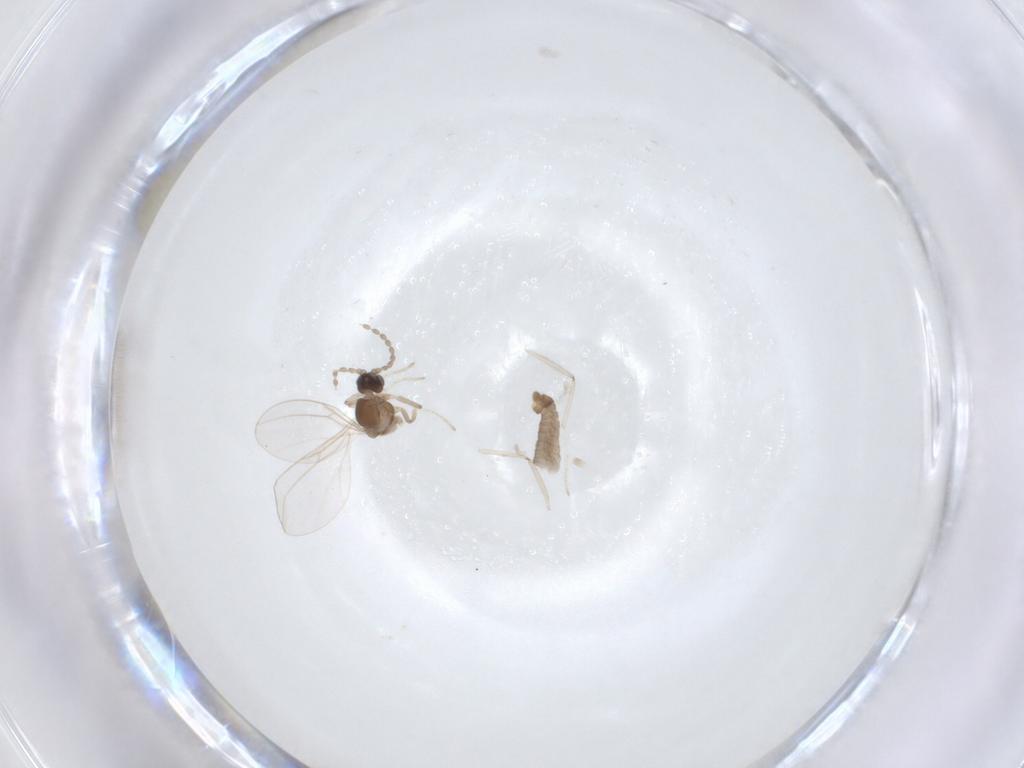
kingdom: Animalia
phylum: Arthropoda
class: Insecta
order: Diptera
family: Cecidomyiidae
